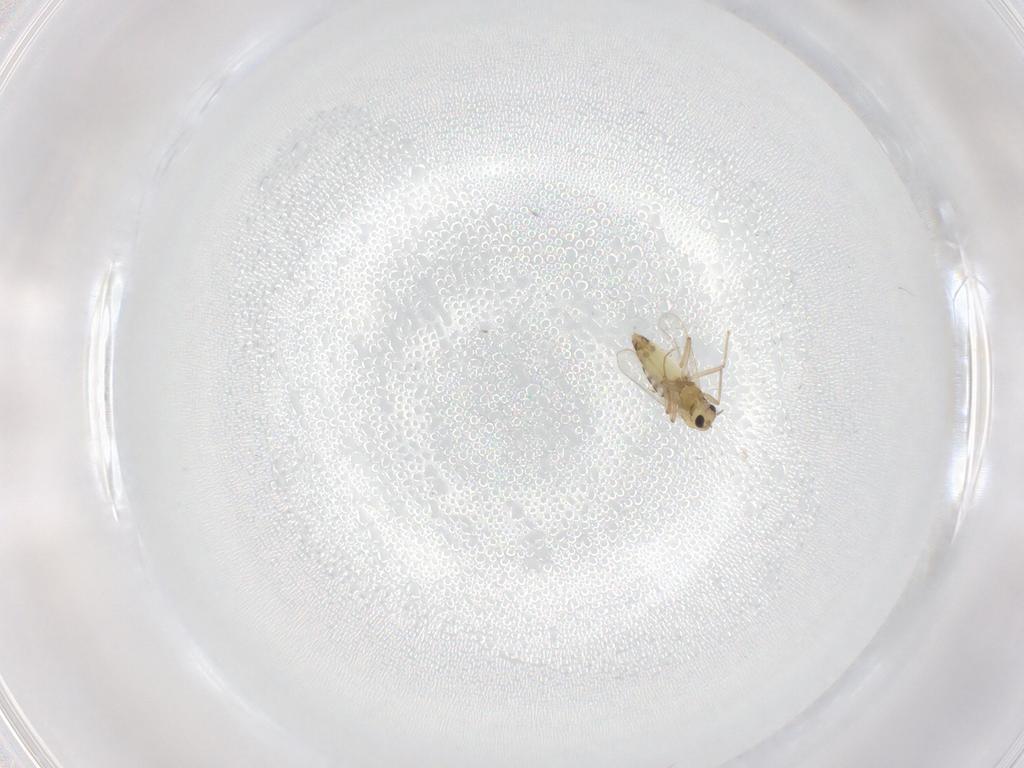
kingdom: Animalia
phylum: Arthropoda
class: Insecta
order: Diptera
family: Chironomidae
